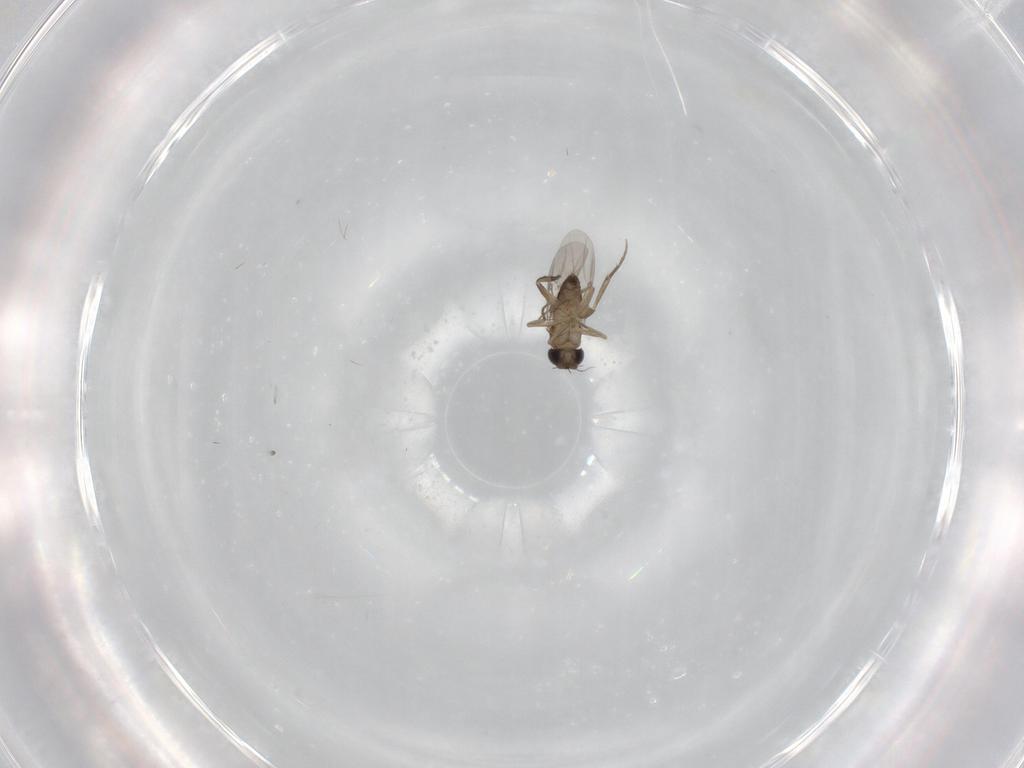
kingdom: Animalia
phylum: Arthropoda
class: Insecta
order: Diptera
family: Phoridae
